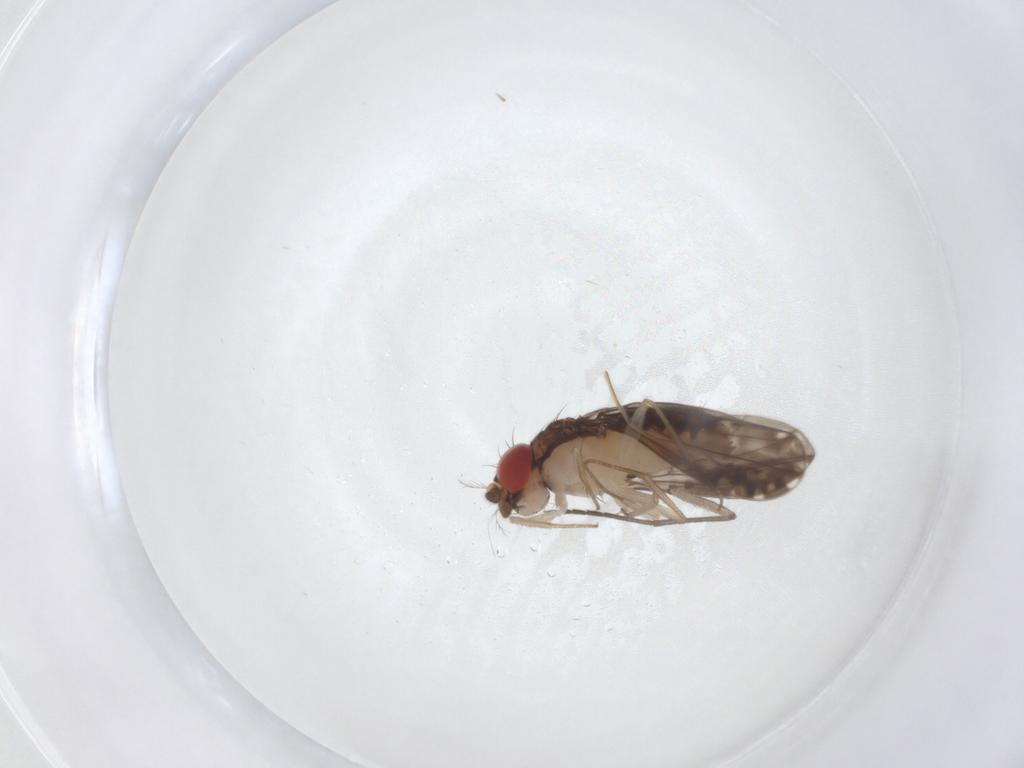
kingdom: Animalia
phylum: Arthropoda
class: Insecta
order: Diptera
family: Drosophilidae
